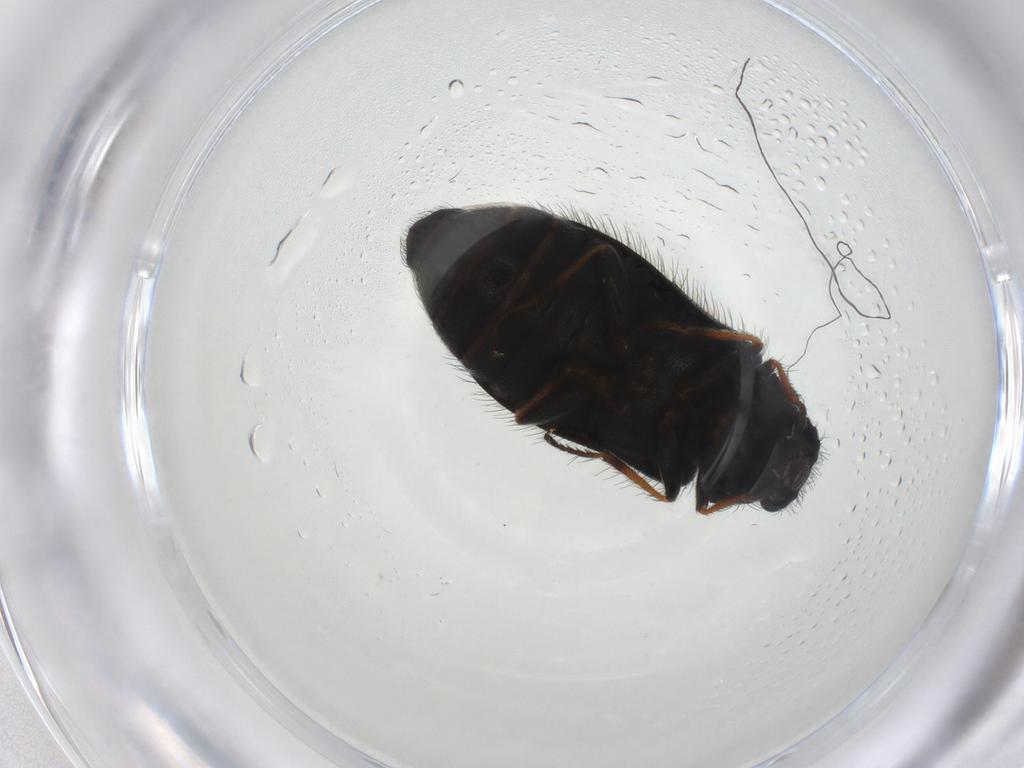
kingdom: Animalia
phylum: Arthropoda
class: Insecta
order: Coleoptera
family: Melyridae
